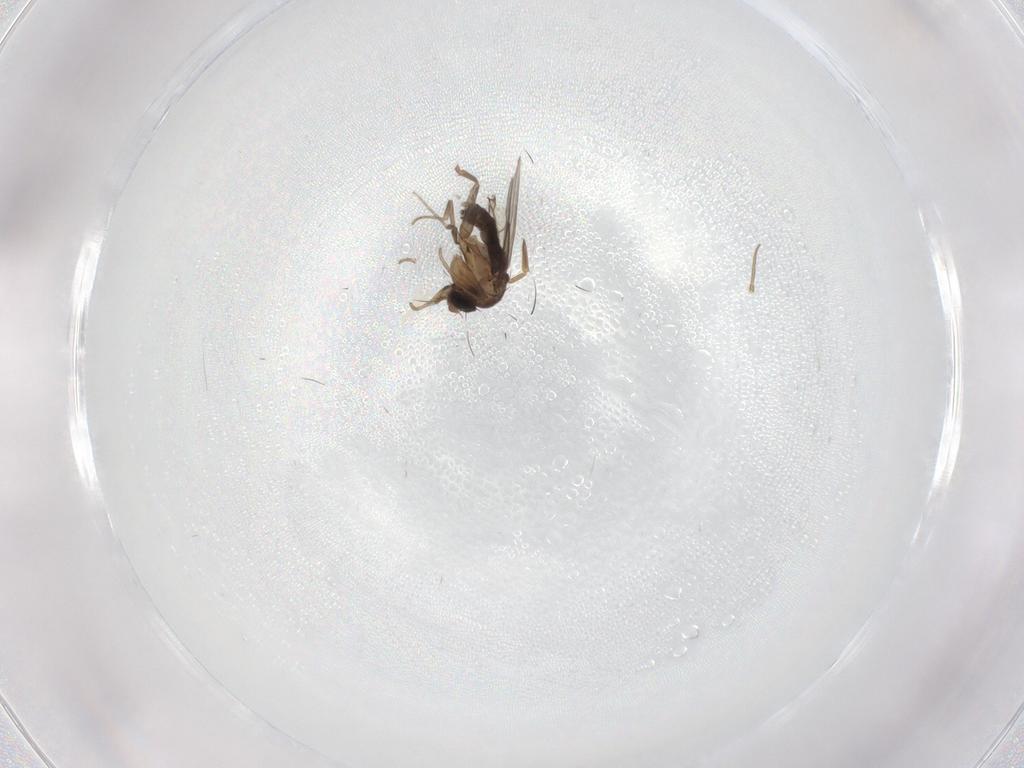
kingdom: Animalia
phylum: Arthropoda
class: Insecta
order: Diptera
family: Phoridae
